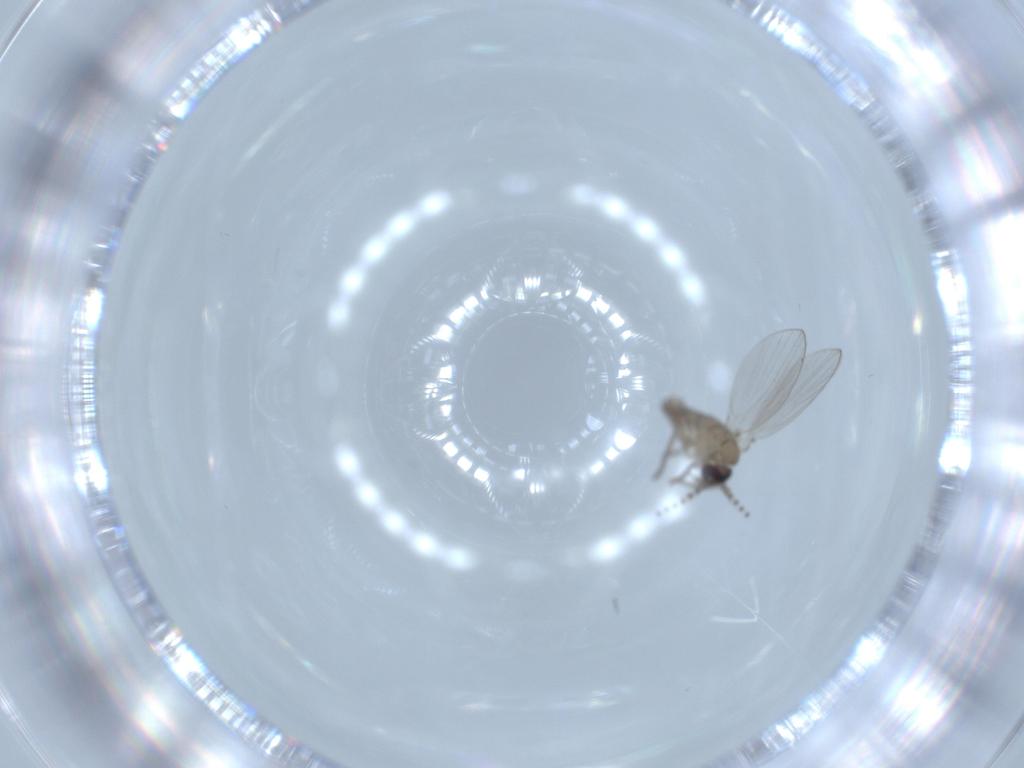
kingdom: Animalia
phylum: Arthropoda
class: Insecta
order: Diptera
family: Psychodidae
